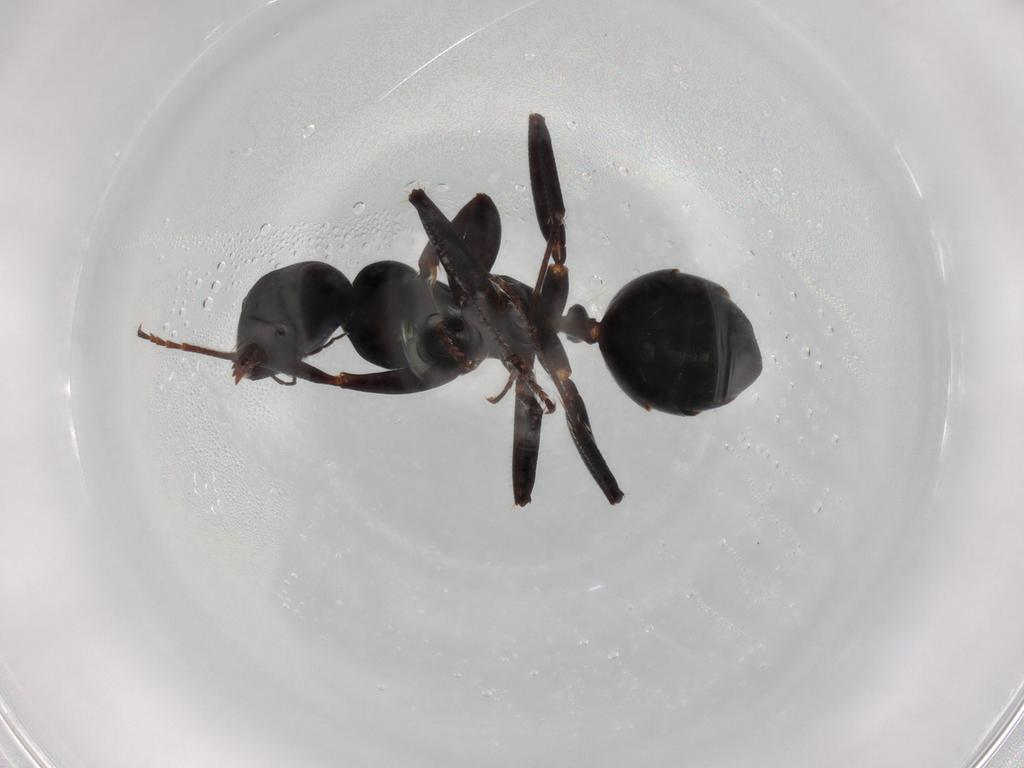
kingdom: Animalia
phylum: Arthropoda
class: Insecta
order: Hymenoptera
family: Formicidae
